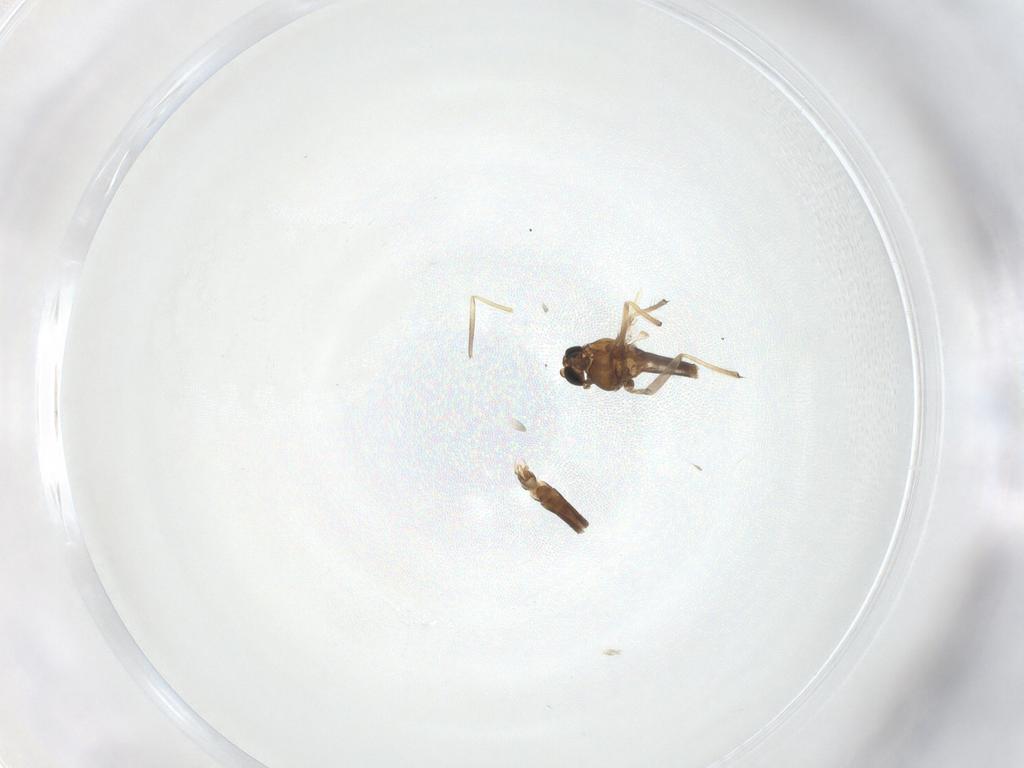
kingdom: Animalia
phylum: Arthropoda
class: Insecta
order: Diptera
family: Chironomidae
